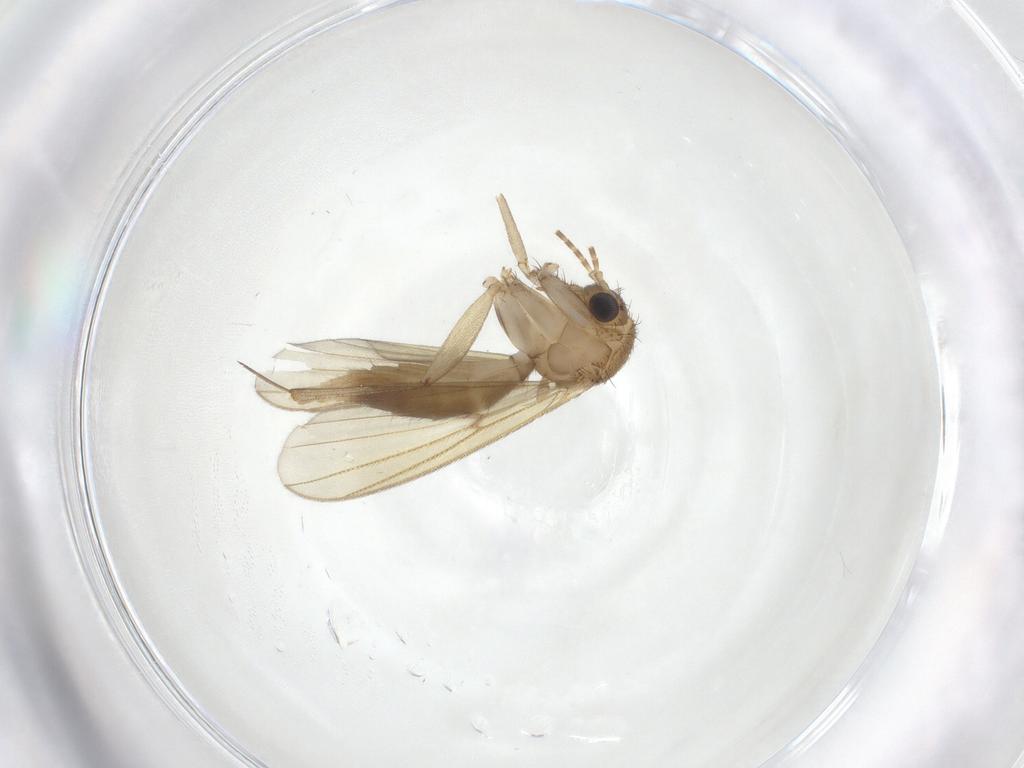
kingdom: Animalia
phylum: Arthropoda
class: Insecta
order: Diptera
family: Mycetophilidae
